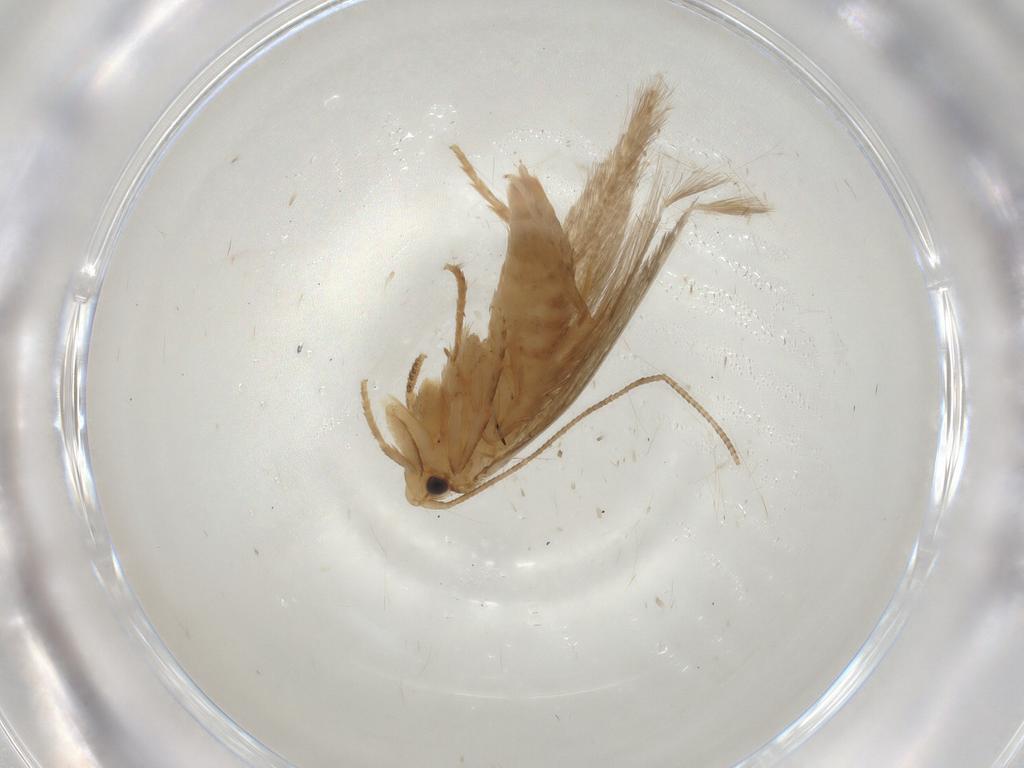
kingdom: Animalia
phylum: Arthropoda
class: Insecta
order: Lepidoptera
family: Tineidae
